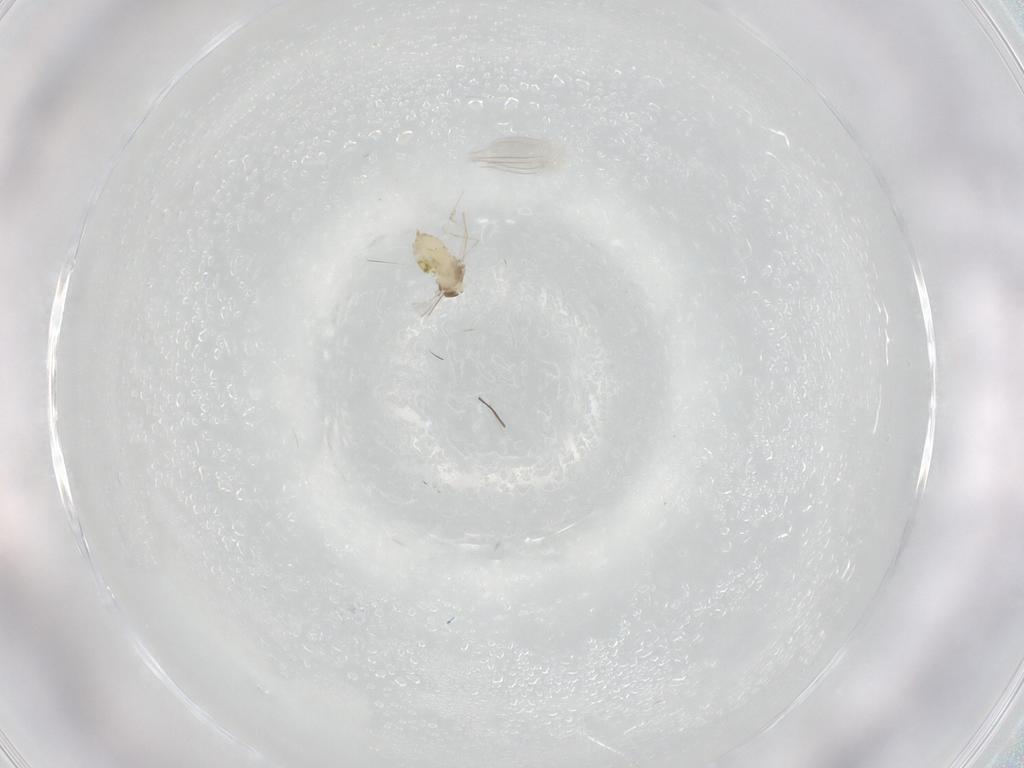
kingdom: Animalia
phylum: Arthropoda
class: Insecta
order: Diptera
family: Cecidomyiidae
